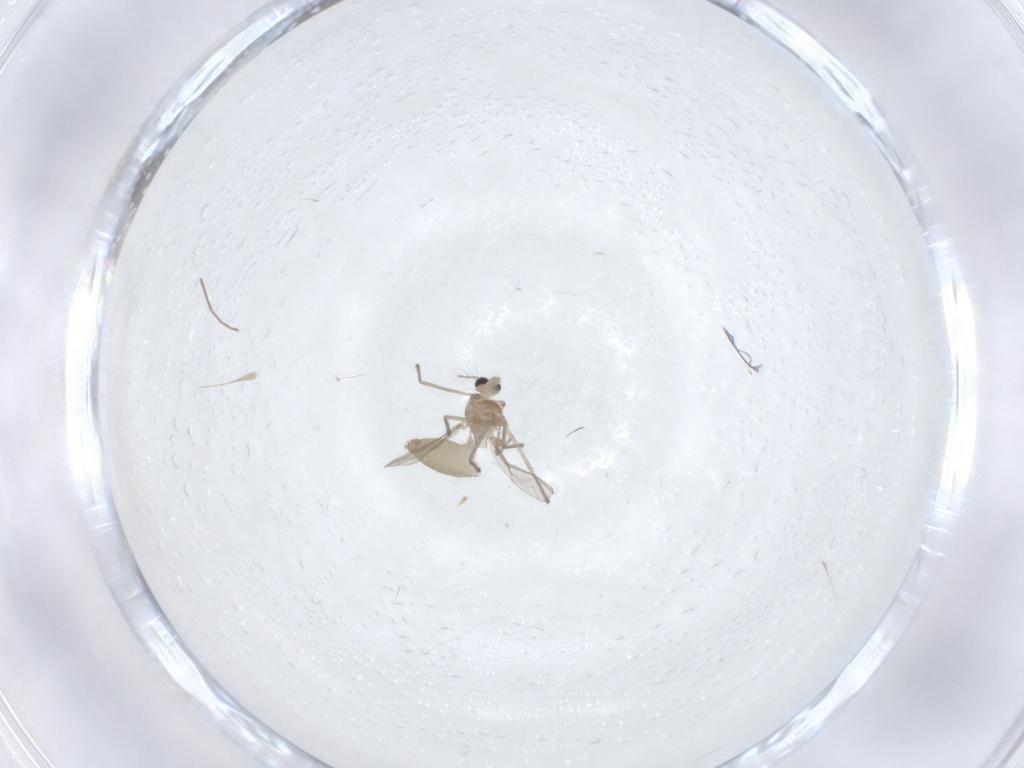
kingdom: Animalia
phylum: Arthropoda
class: Insecta
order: Diptera
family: Chironomidae
